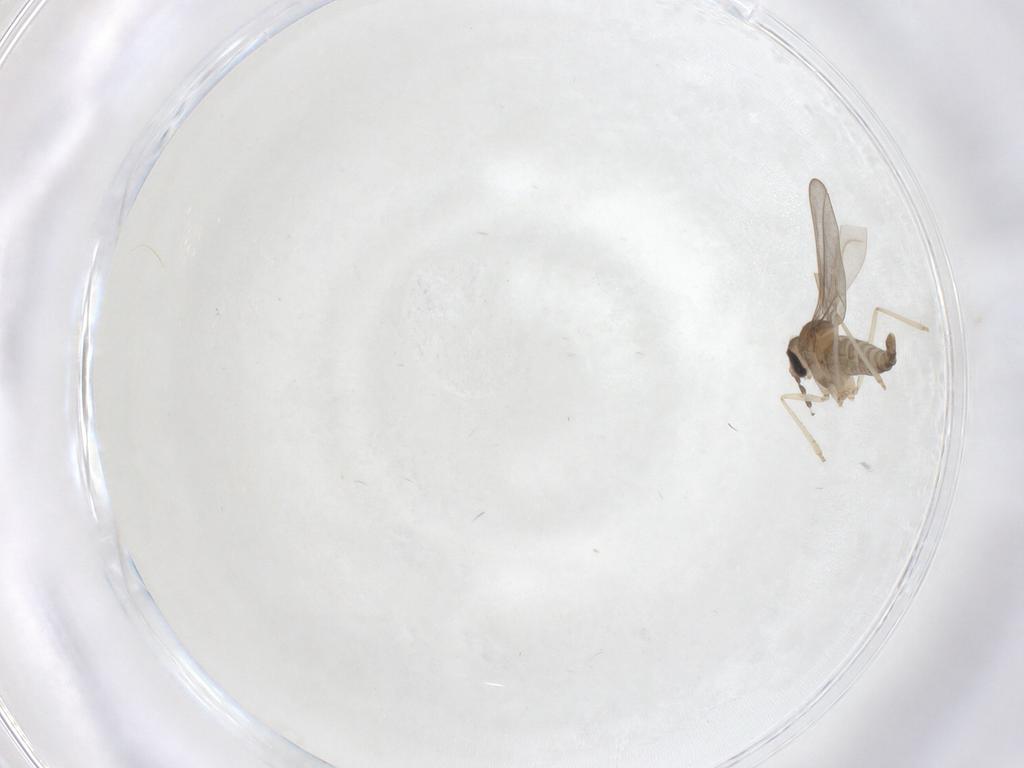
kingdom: Animalia
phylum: Arthropoda
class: Insecta
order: Diptera
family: Cecidomyiidae
